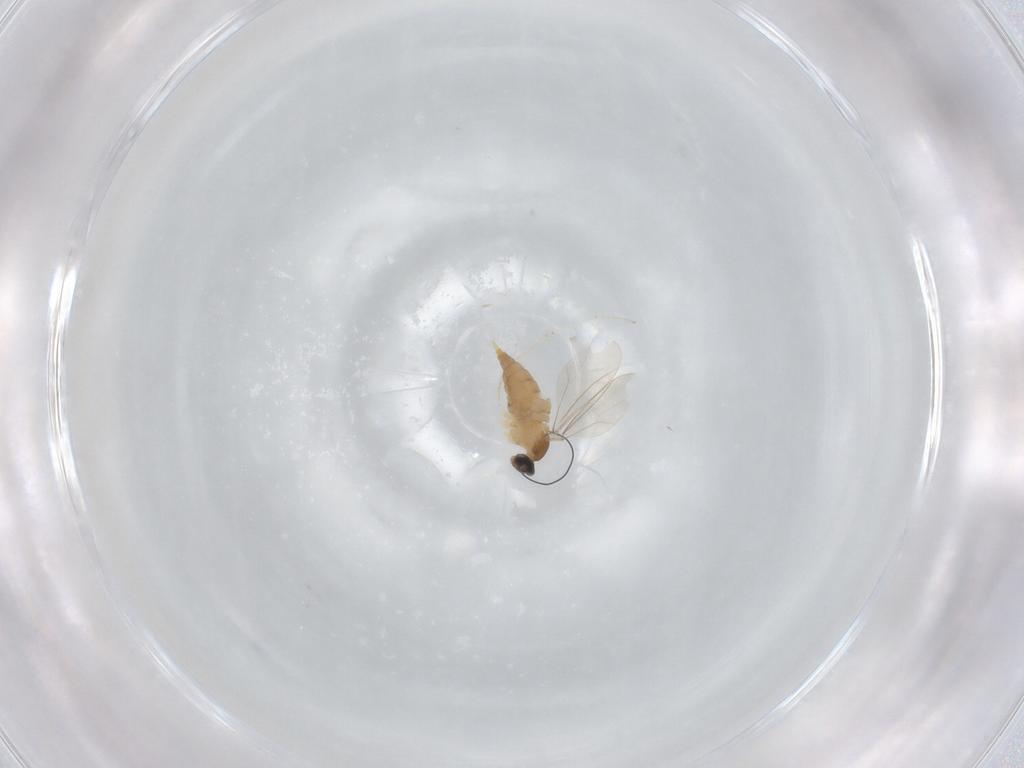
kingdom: Animalia
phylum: Arthropoda
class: Insecta
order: Diptera
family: Cecidomyiidae
